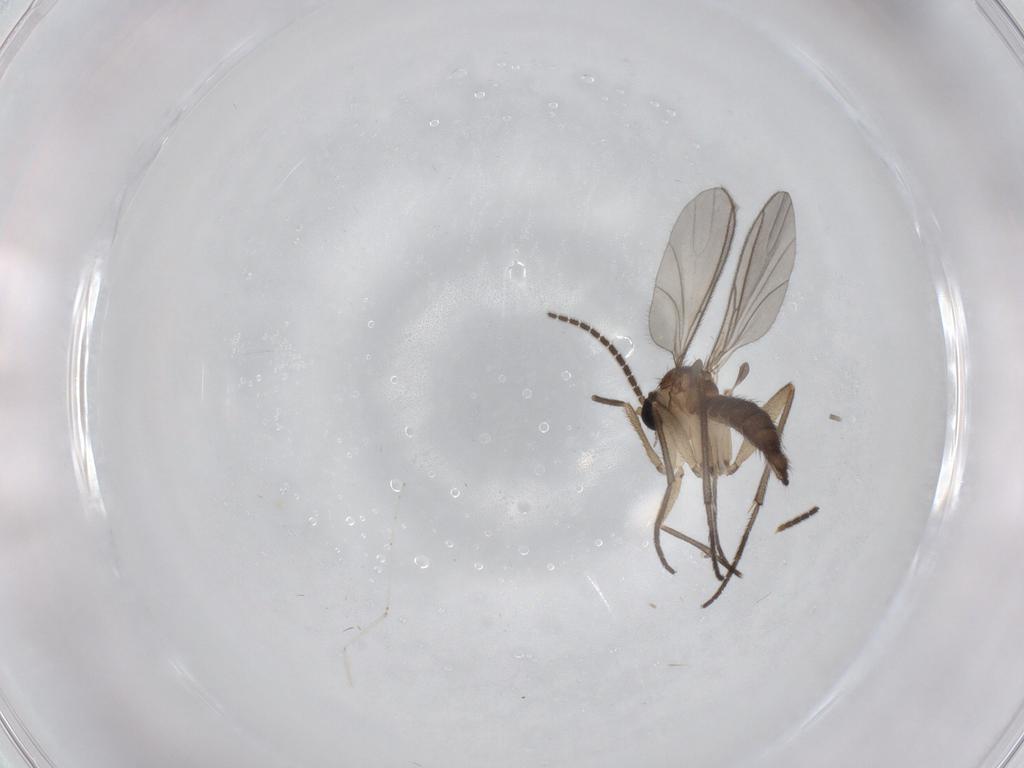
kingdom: Animalia
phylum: Arthropoda
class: Insecta
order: Diptera
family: Sciaridae
